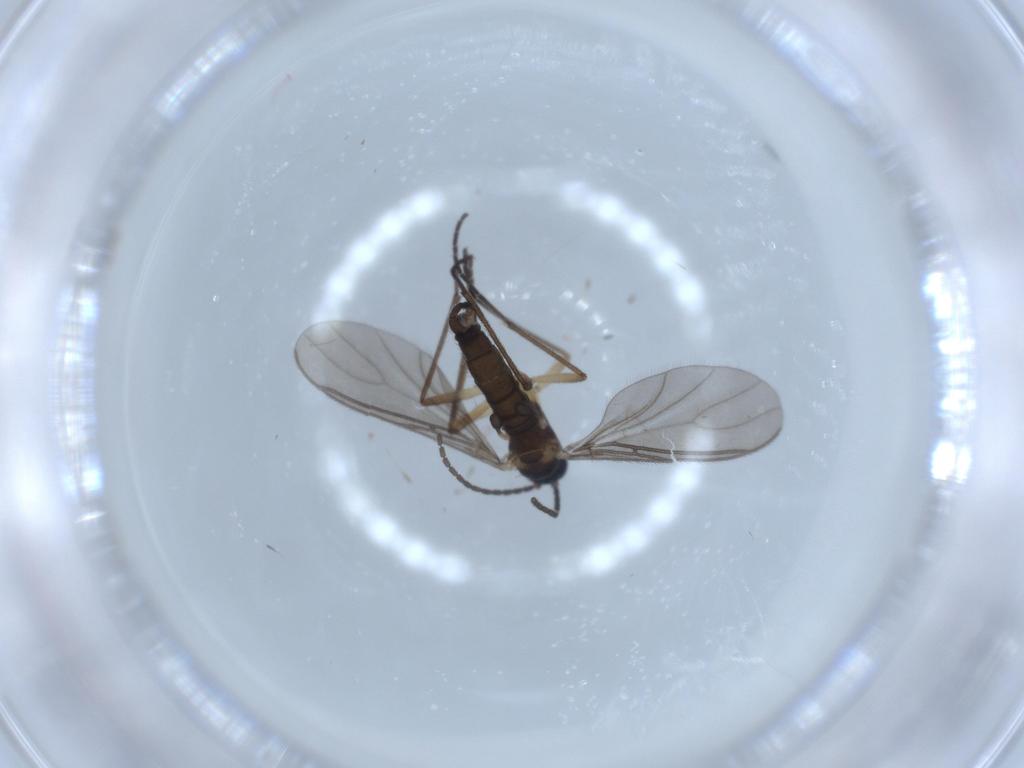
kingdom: Animalia
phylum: Arthropoda
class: Insecta
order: Diptera
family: Sciaridae
